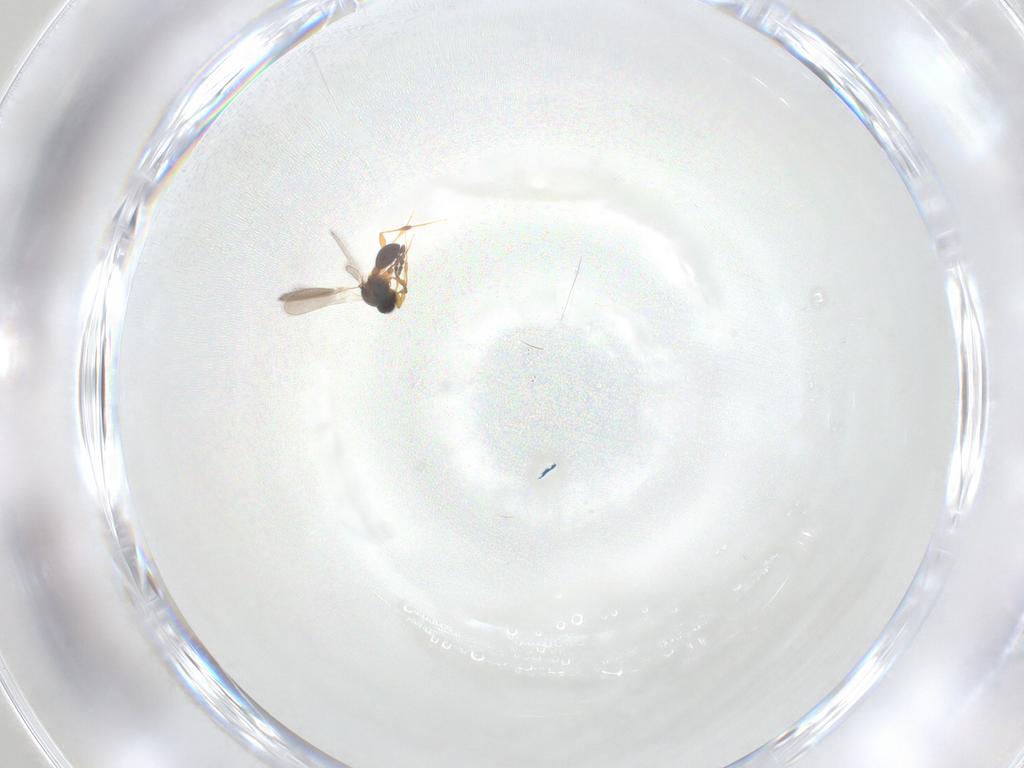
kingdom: Animalia
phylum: Arthropoda
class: Insecta
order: Hymenoptera
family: Platygastridae
